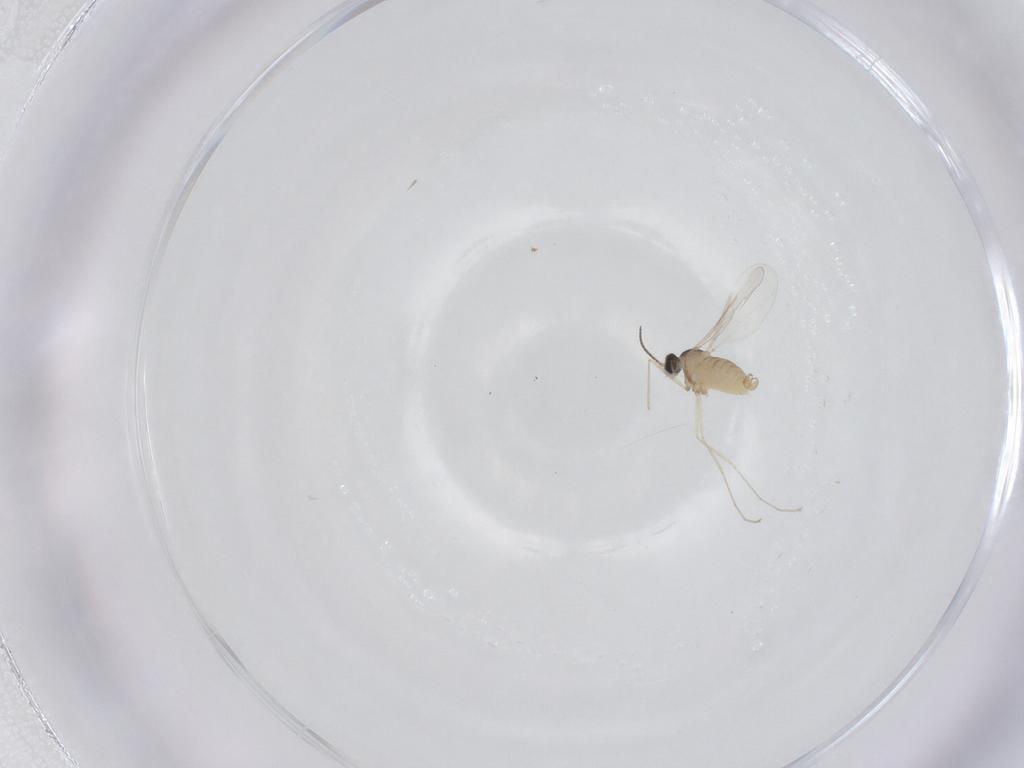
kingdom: Animalia
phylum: Arthropoda
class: Insecta
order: Diptera
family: Cecidomyiidae
